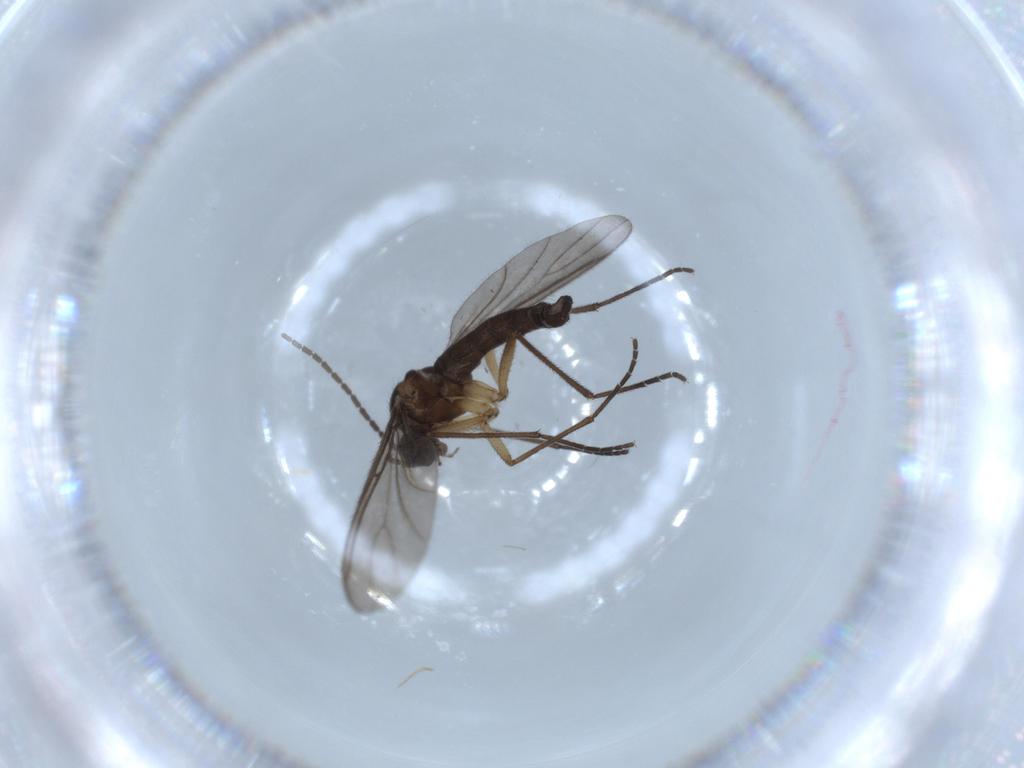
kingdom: Animalia
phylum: Arthropoda
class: Insecta
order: Diptera
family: Sciaridae
